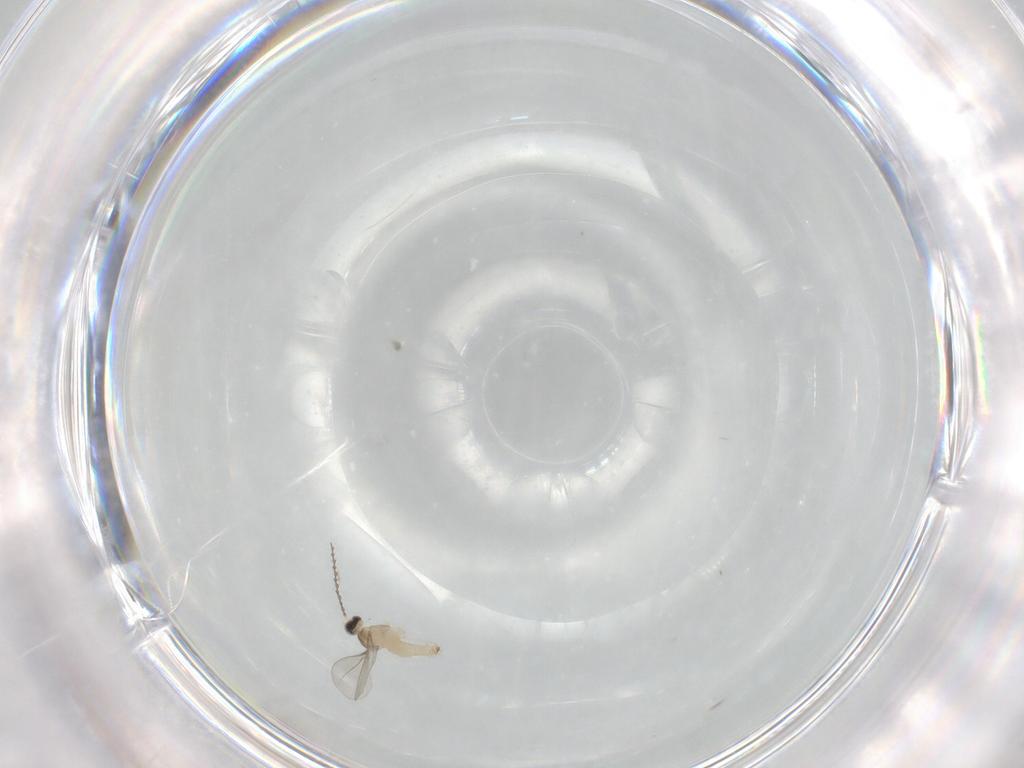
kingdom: Animalia
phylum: Arthropoda
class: Insecta
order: Diptera
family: Cecidomyiidae
